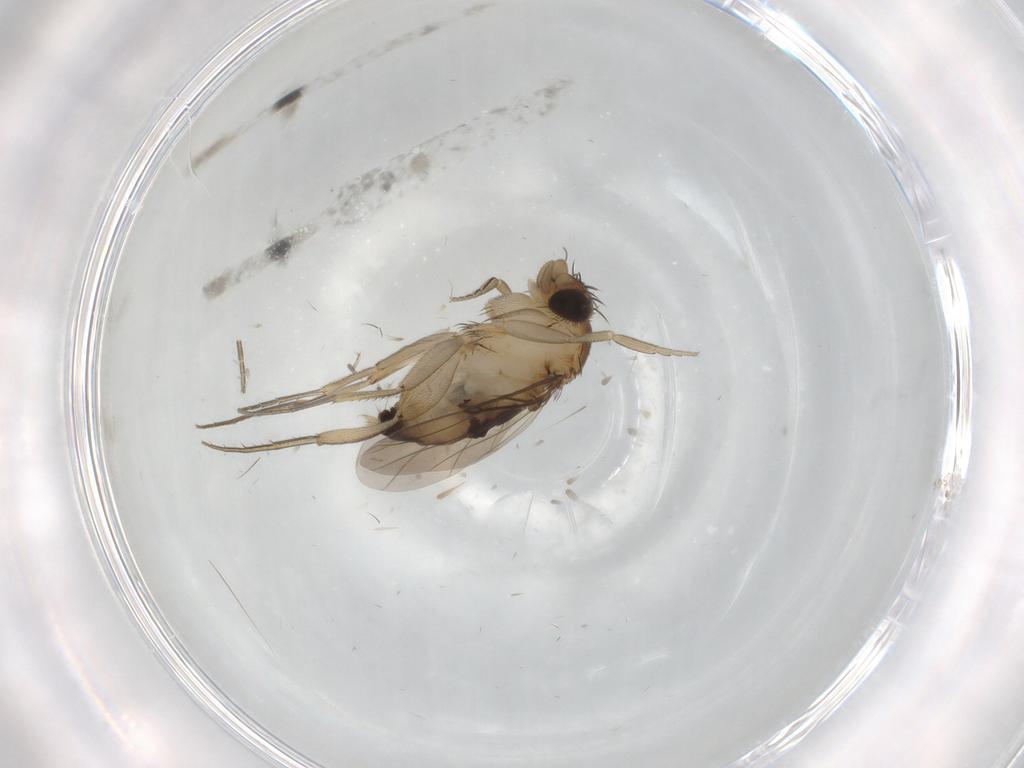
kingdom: Animalia
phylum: Arthropoda
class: Insecta
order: Diptera
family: Phoridae
